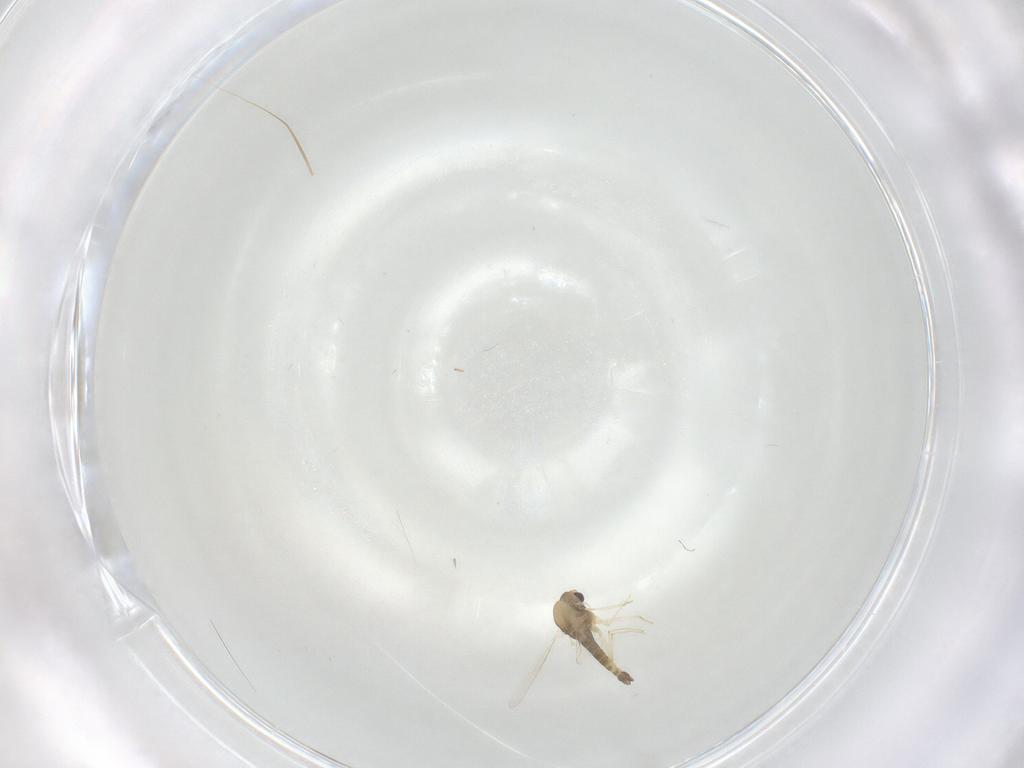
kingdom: Animalia
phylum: Arthropoda
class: Insecta
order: Diptera
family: Chironomidae
